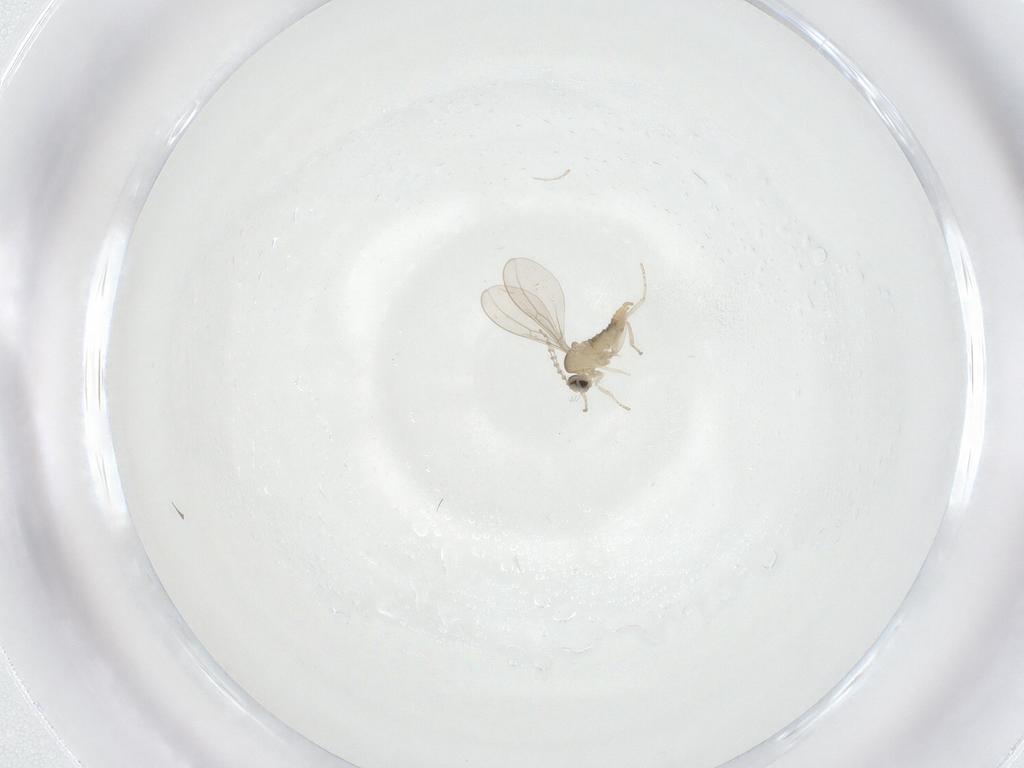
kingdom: Animalia
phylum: Arthropoda
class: Insecta
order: Diptera
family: Cecidomyiidae
